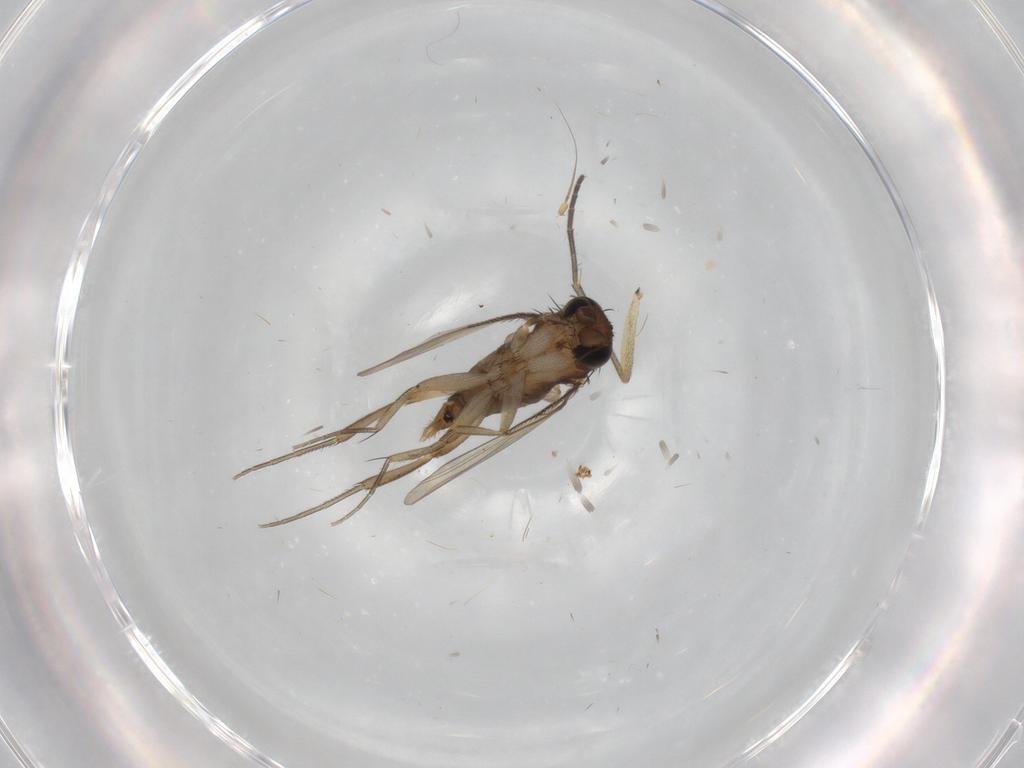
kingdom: Animalia
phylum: Arthropoda
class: Insecta
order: Diptera
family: Phoridae
